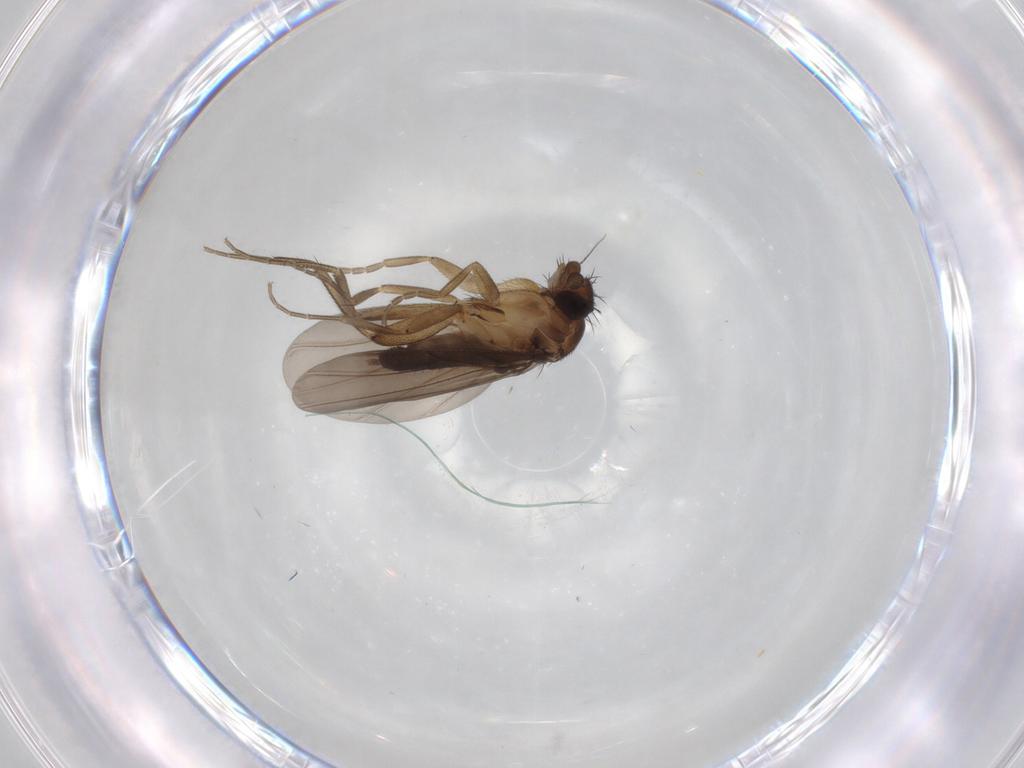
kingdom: Animalia
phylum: Arthropoda
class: Insecta
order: Diptera
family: Phoridae
